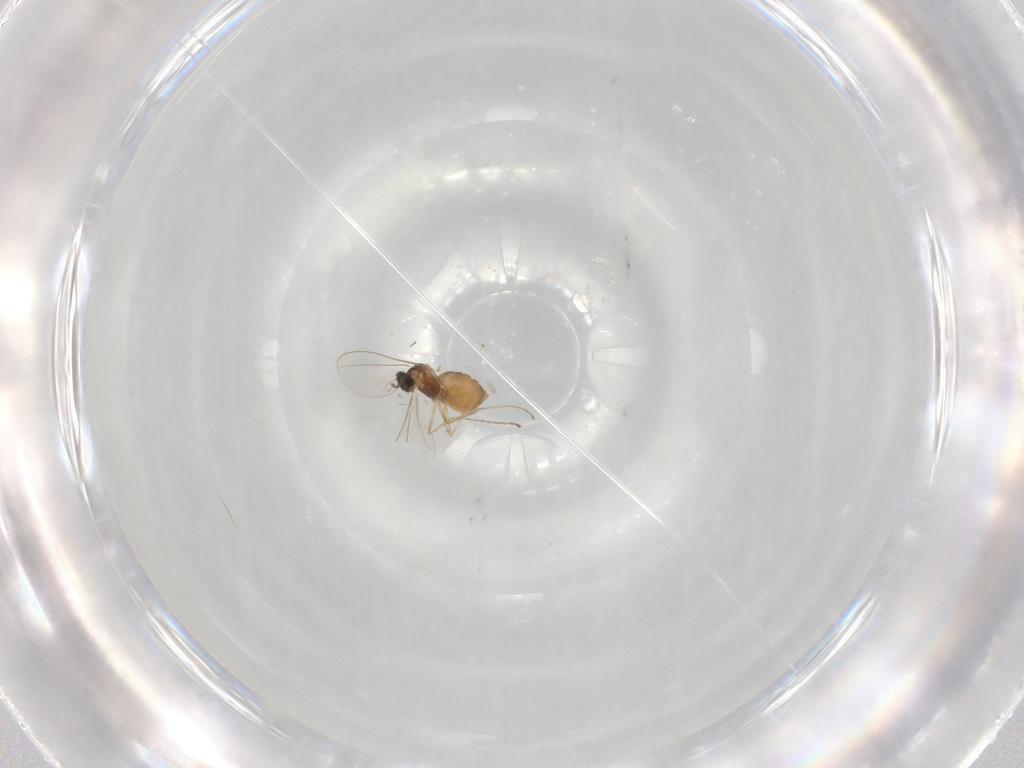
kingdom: Animalia
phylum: Arthropoda
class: Insecta
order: Diptera
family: Cecidomyiidae
